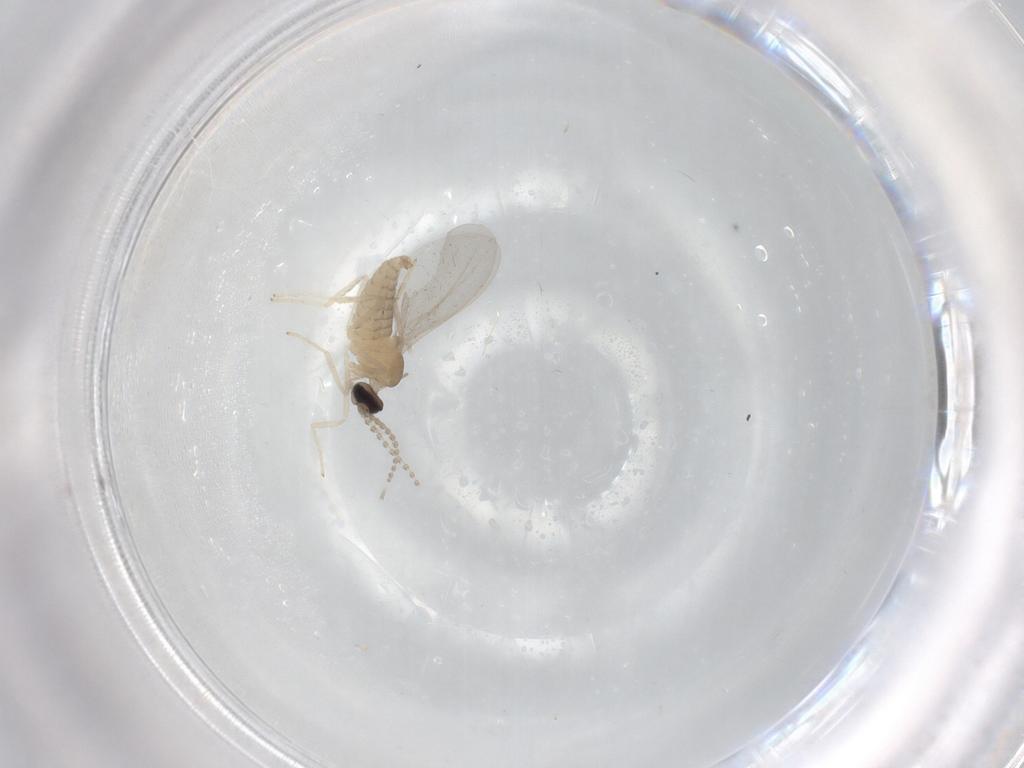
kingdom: Animalia
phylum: Arthropoda
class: Insecta
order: Diptera
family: Cecidomyiidae
